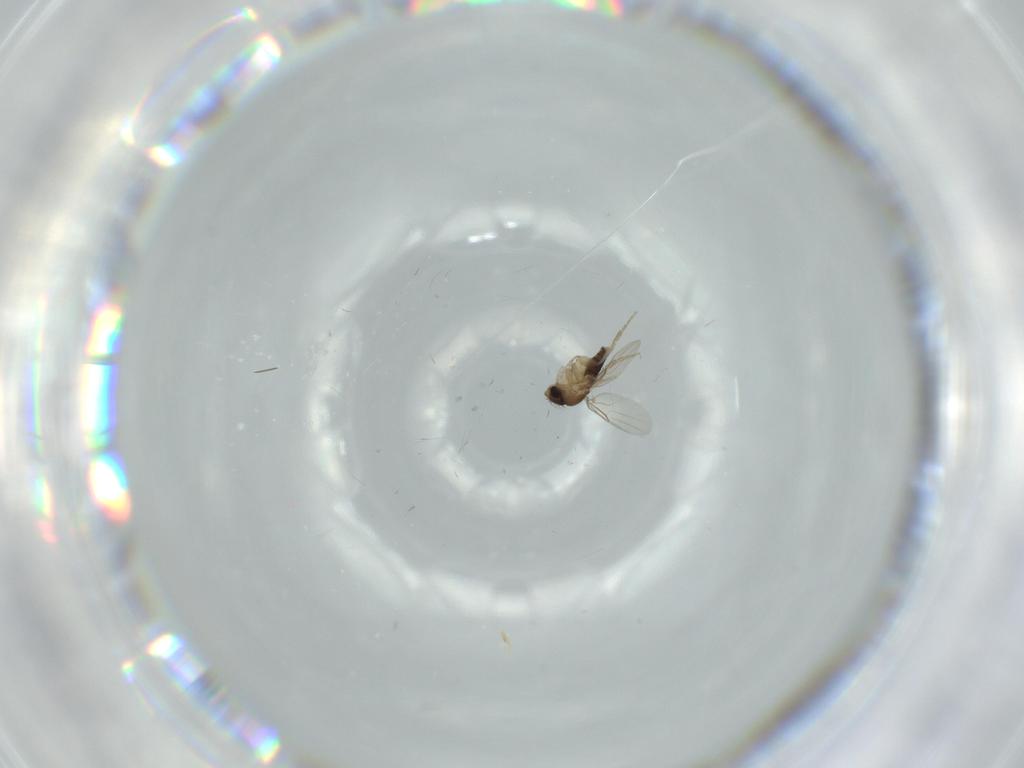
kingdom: Animalia
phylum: Arthropoda
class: Insecta
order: Diptera
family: Phoridae
